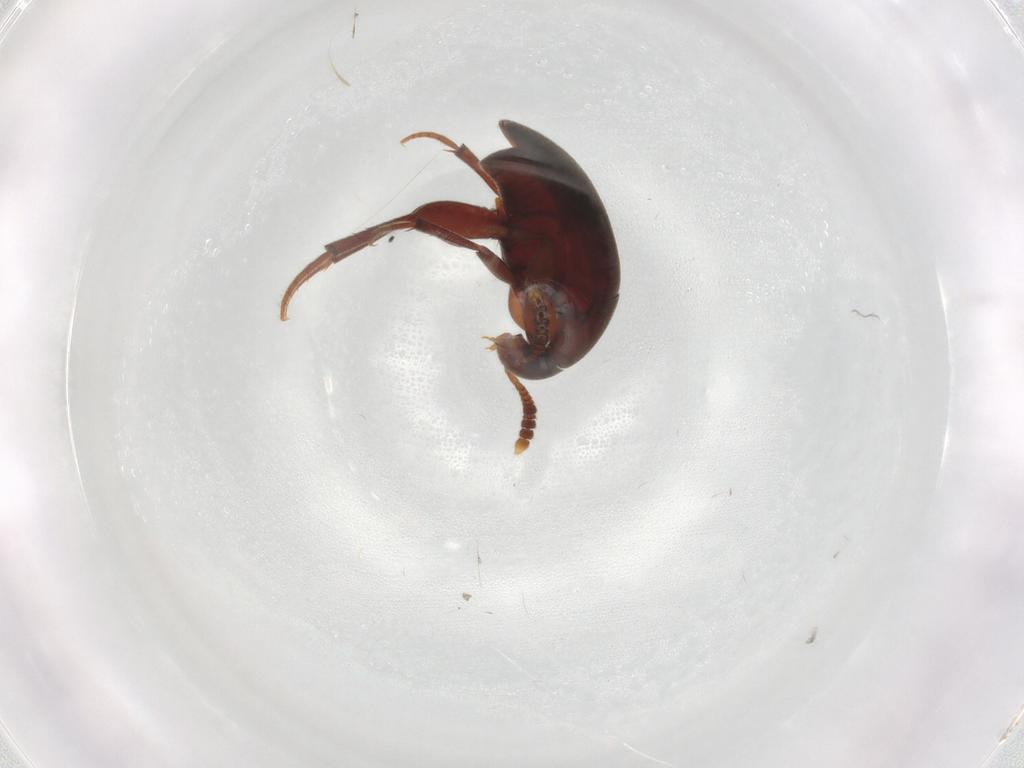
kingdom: Animalia
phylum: Arthropoda
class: Insecta
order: Coleoptera
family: Leiodidae
